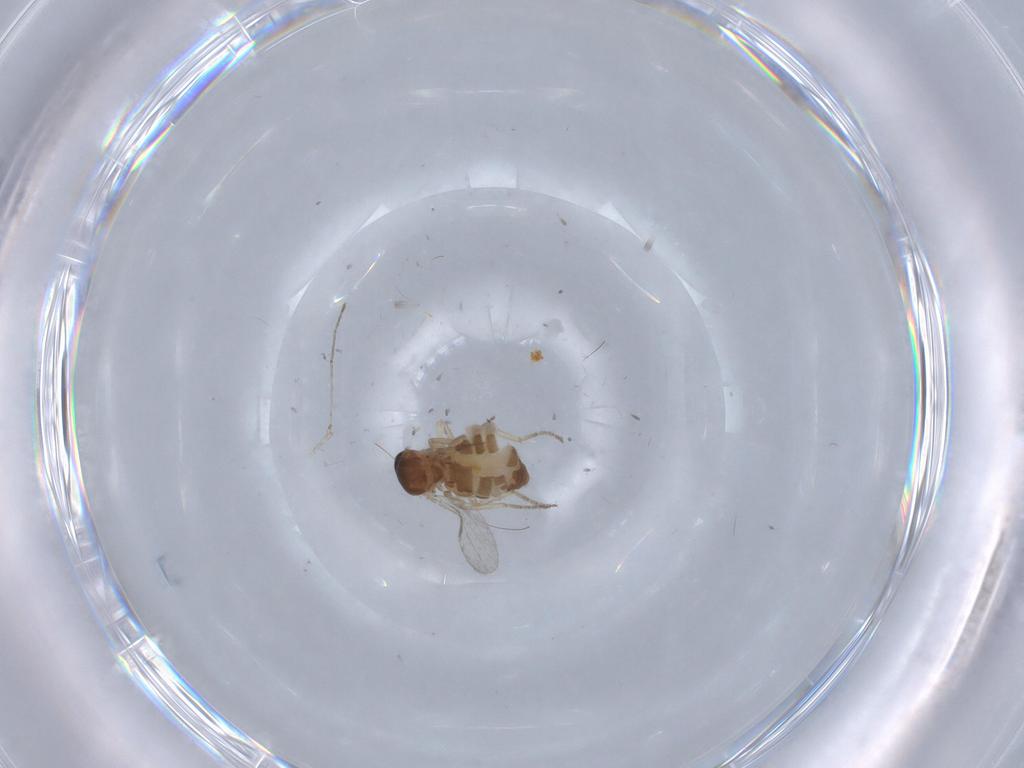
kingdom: Animalia
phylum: Arthropoda
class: Insecta
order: Diptera
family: Ceratopogonidae
